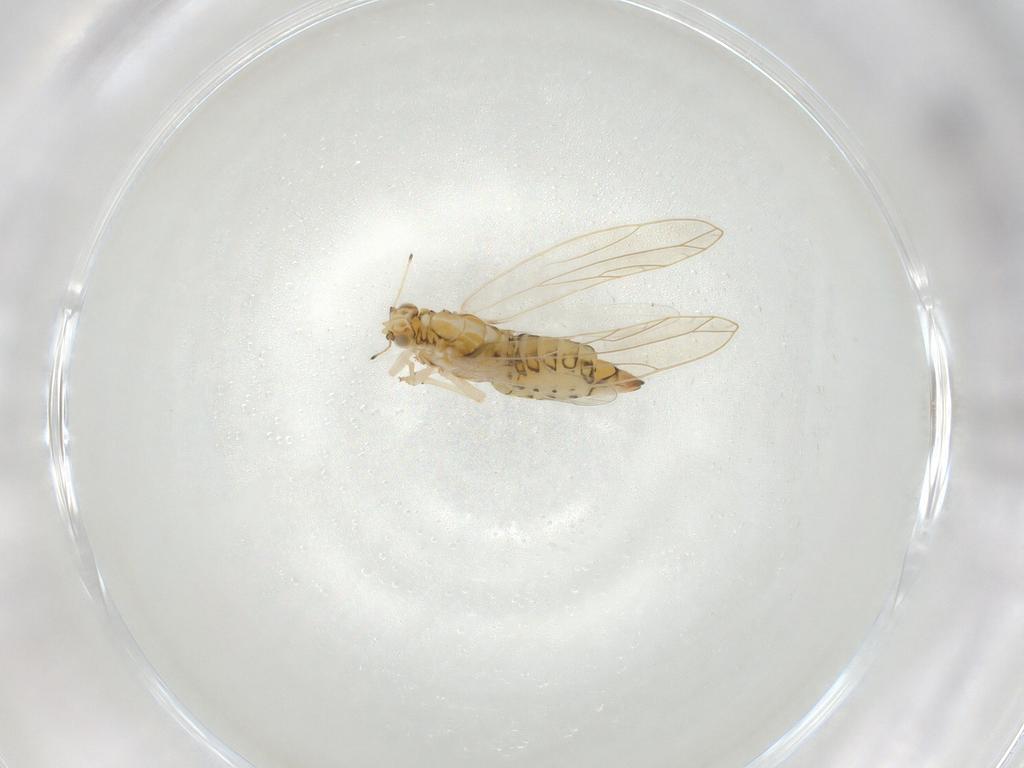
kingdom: Animalia
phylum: Arthropoda
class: Insecta
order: Hemiptera
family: Triozidae
